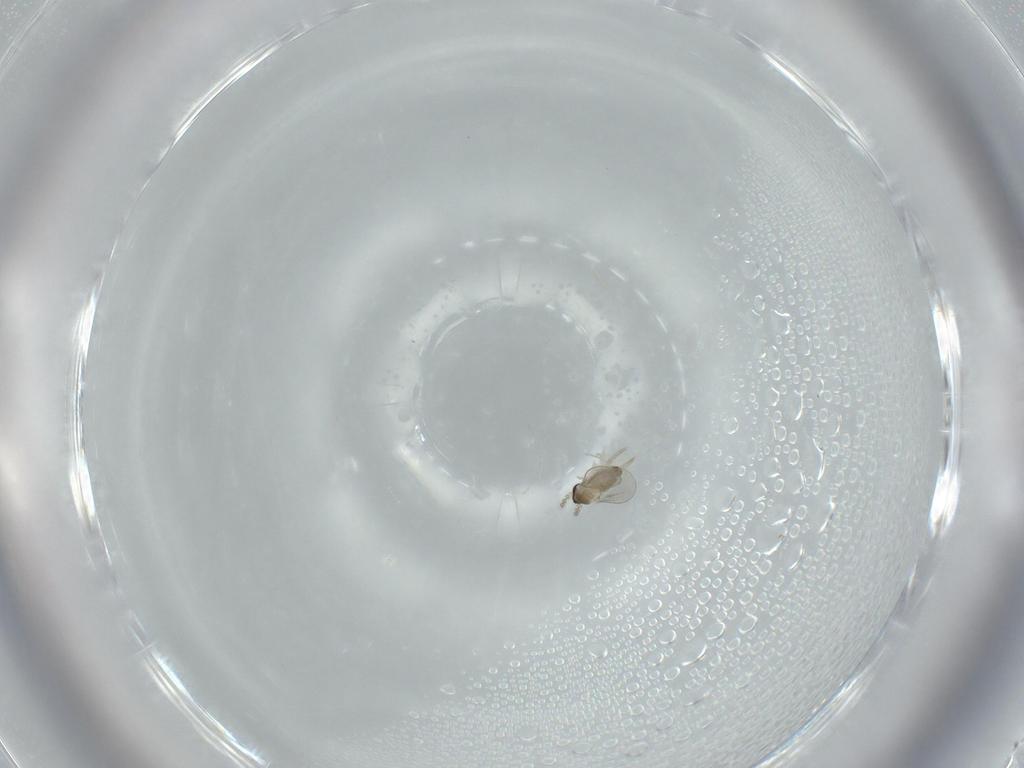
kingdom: Animalia
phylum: Arthropoda
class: Insecta
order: Diptera
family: Cecidomyiidae
